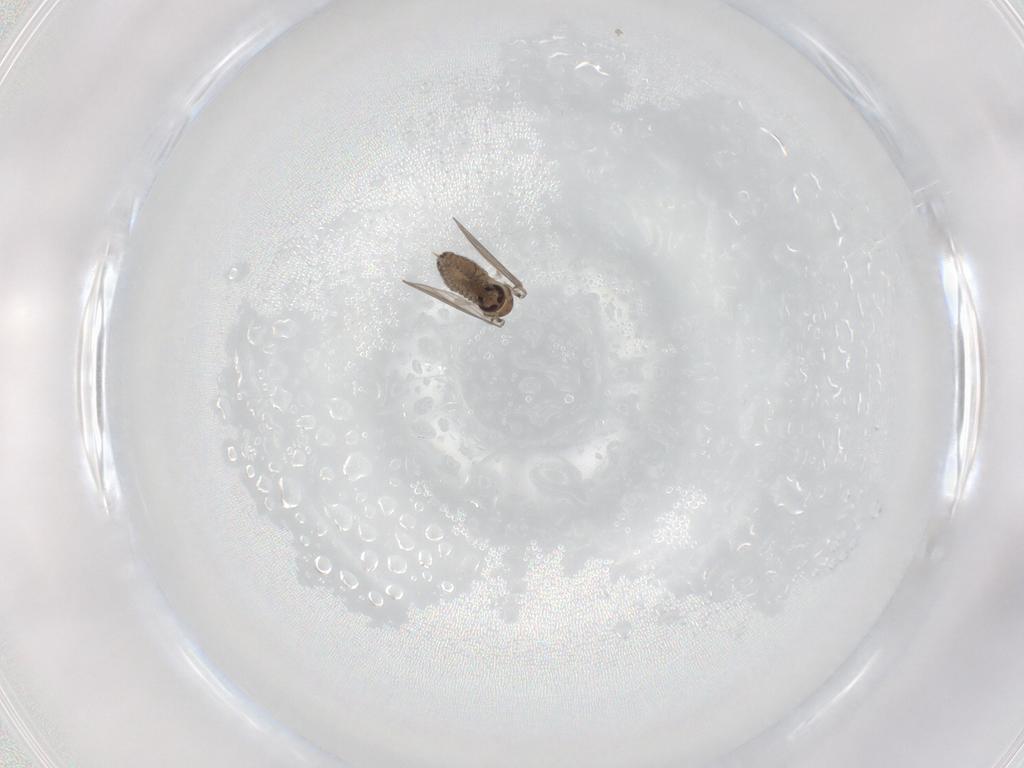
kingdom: Animalia
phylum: Arthropoda
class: Insecta
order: Diptera
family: Psychodidae
